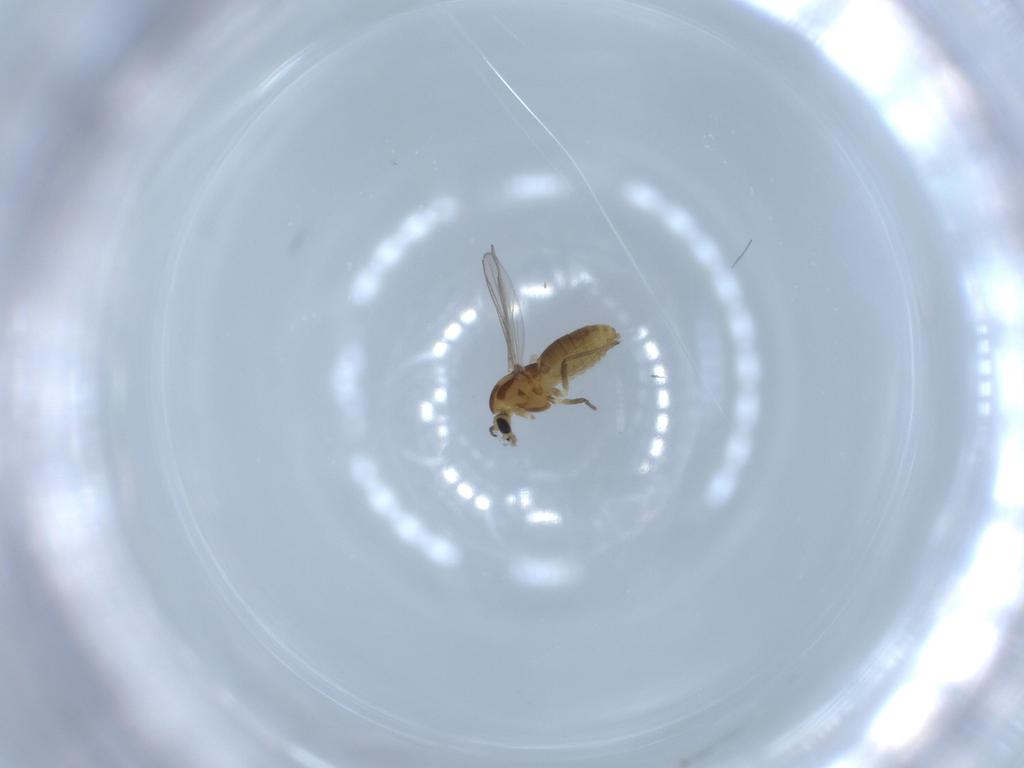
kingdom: Animalia
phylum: Arthropoda
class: Insecta
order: Diptera
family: Chironomidae
